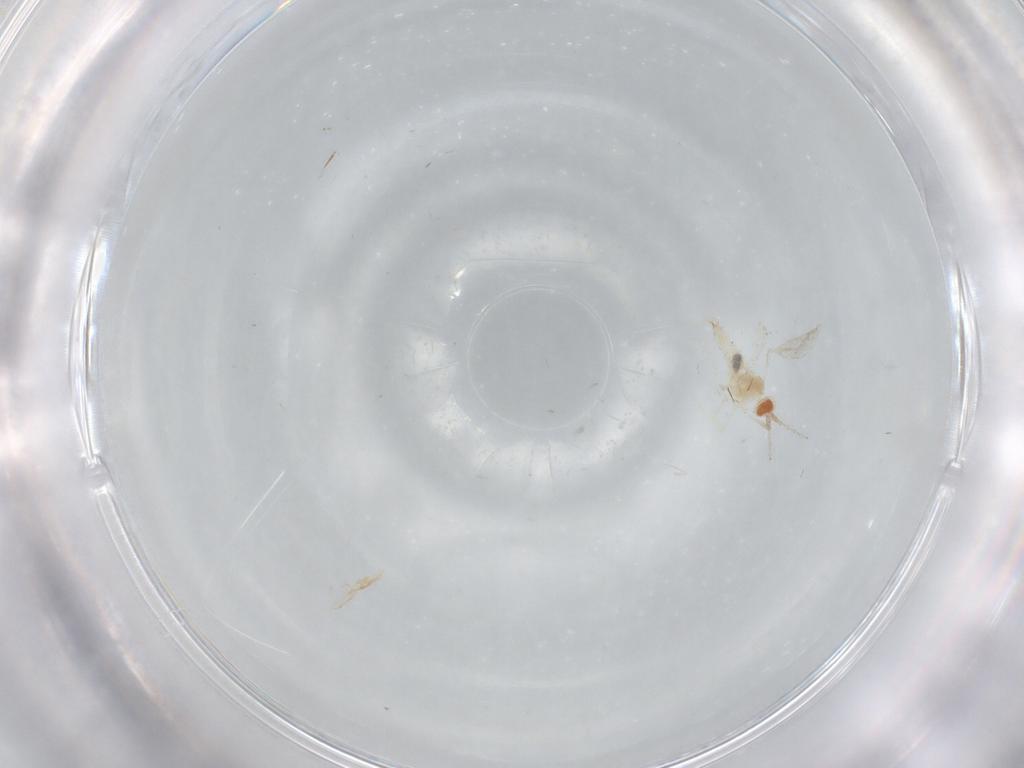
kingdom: Animalia
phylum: Arthropoda
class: Insecta
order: Diptera
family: Cecidomyiidae
